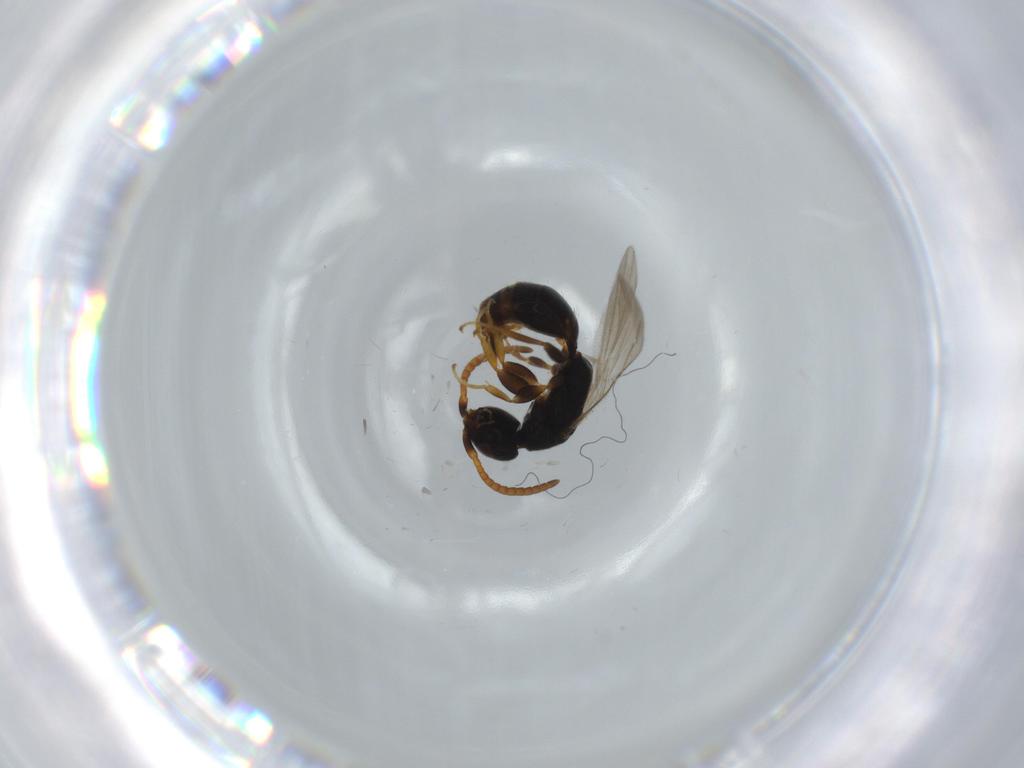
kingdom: Animalia
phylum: Arthropoda
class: Insecta
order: Hymenoptera
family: Bethylidae
